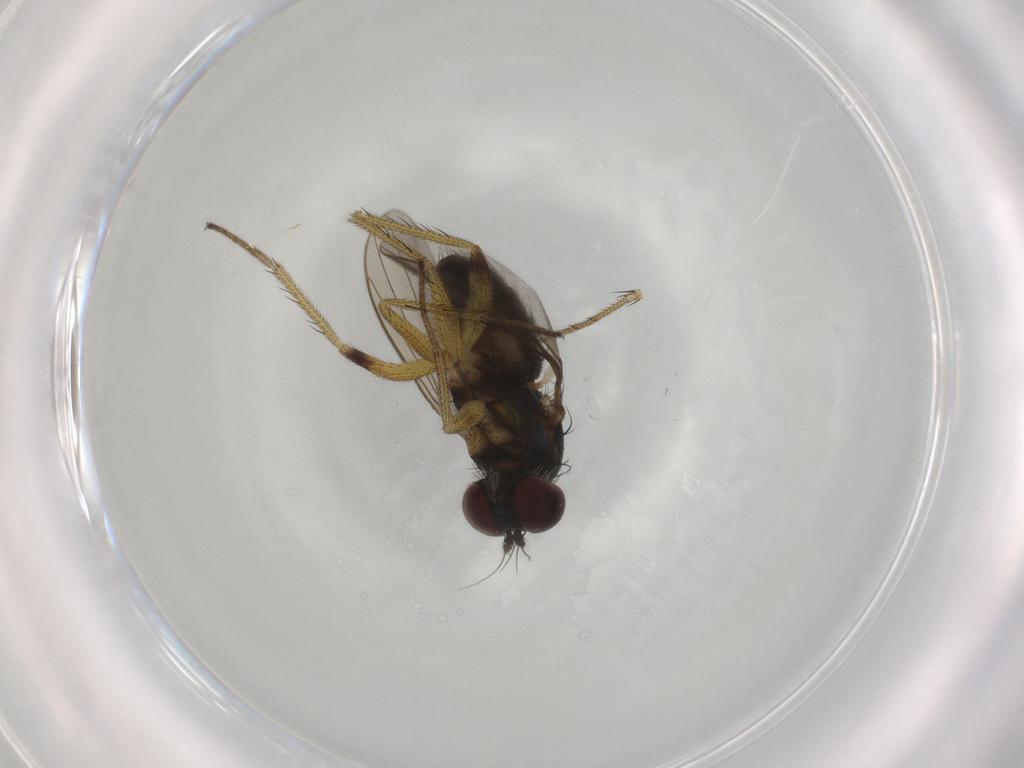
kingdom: Animalia
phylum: Arthropoda
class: Insecta
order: Diptera
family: Dolichopodidae
